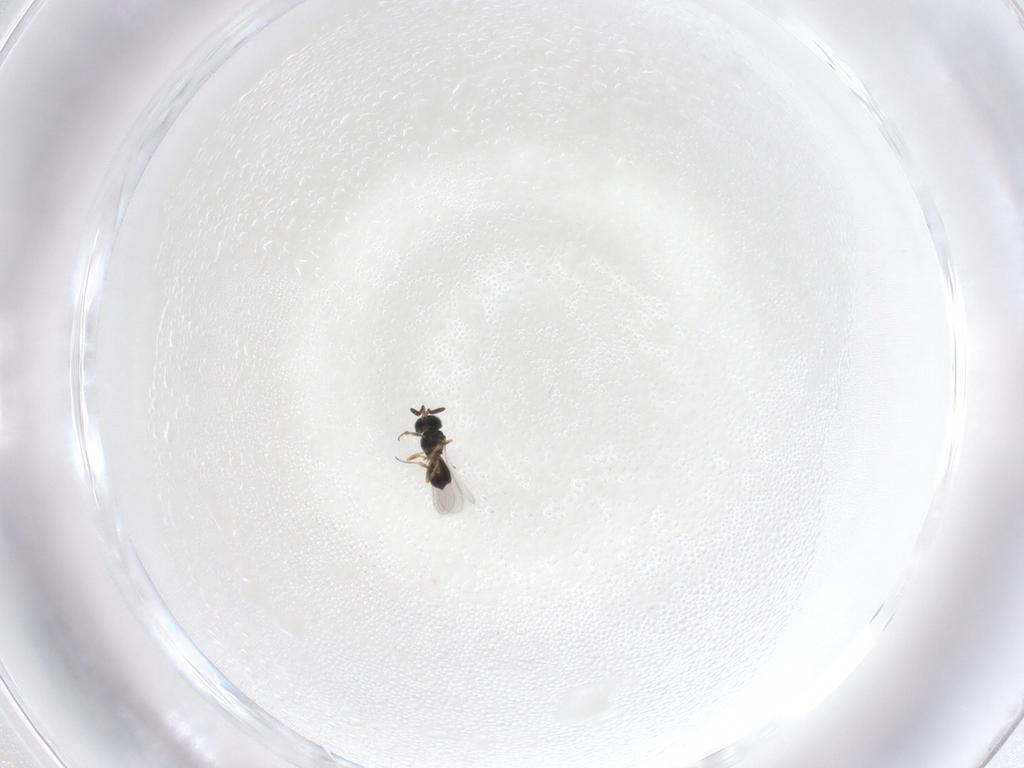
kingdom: Animalia
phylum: Arthropoda
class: Insecta
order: Hymenoptera
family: Scelionidae
